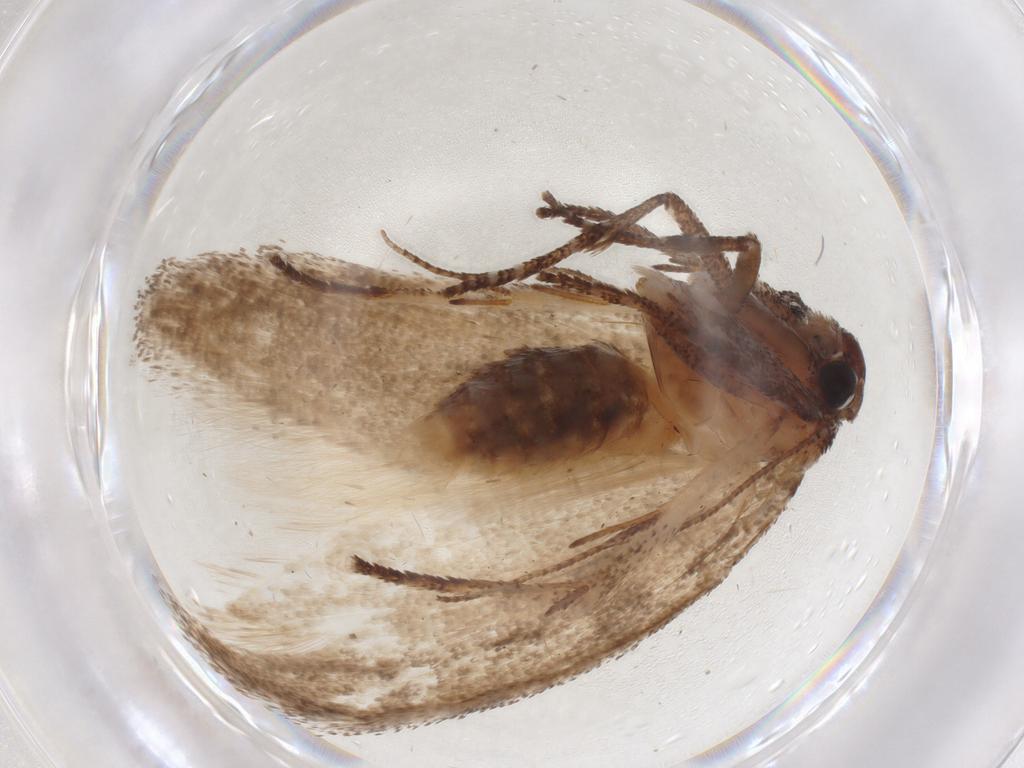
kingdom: Animalia
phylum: Arthropoda
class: Insecta
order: Lepidoptera
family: Cosmopterigidae
